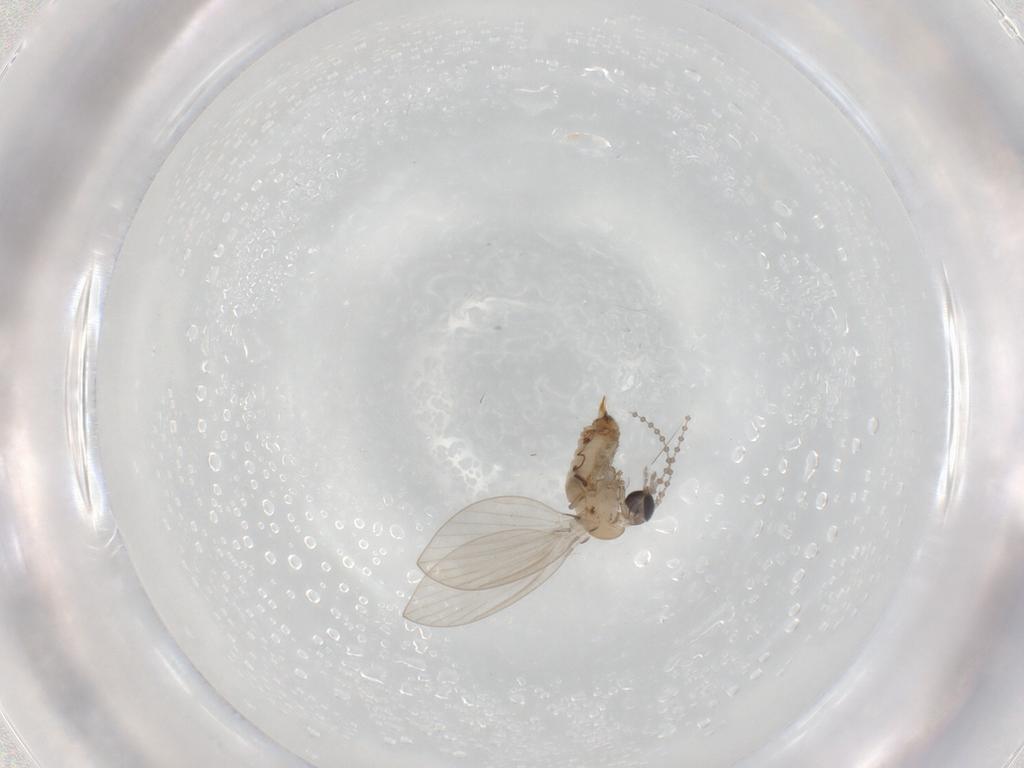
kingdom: Animalia
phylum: Arthropoda
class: Insecta
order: Diptera
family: Psychodidae
